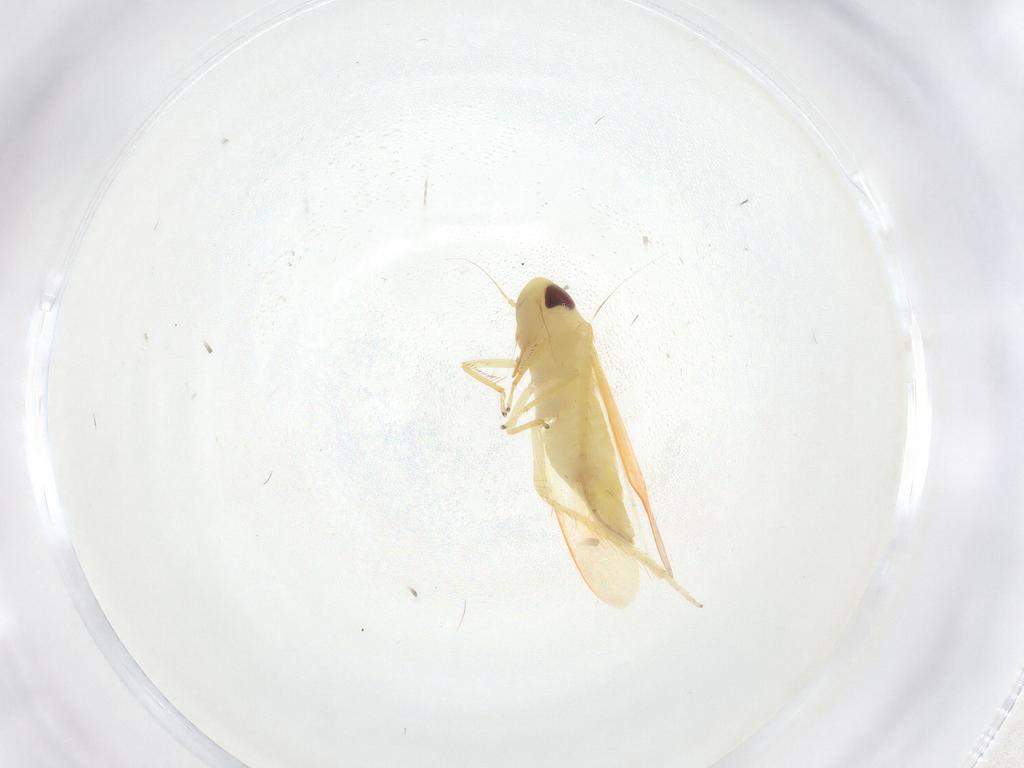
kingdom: Animalia
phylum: Arthropoda
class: Insecta
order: Hemiptera
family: Cicadellidae
